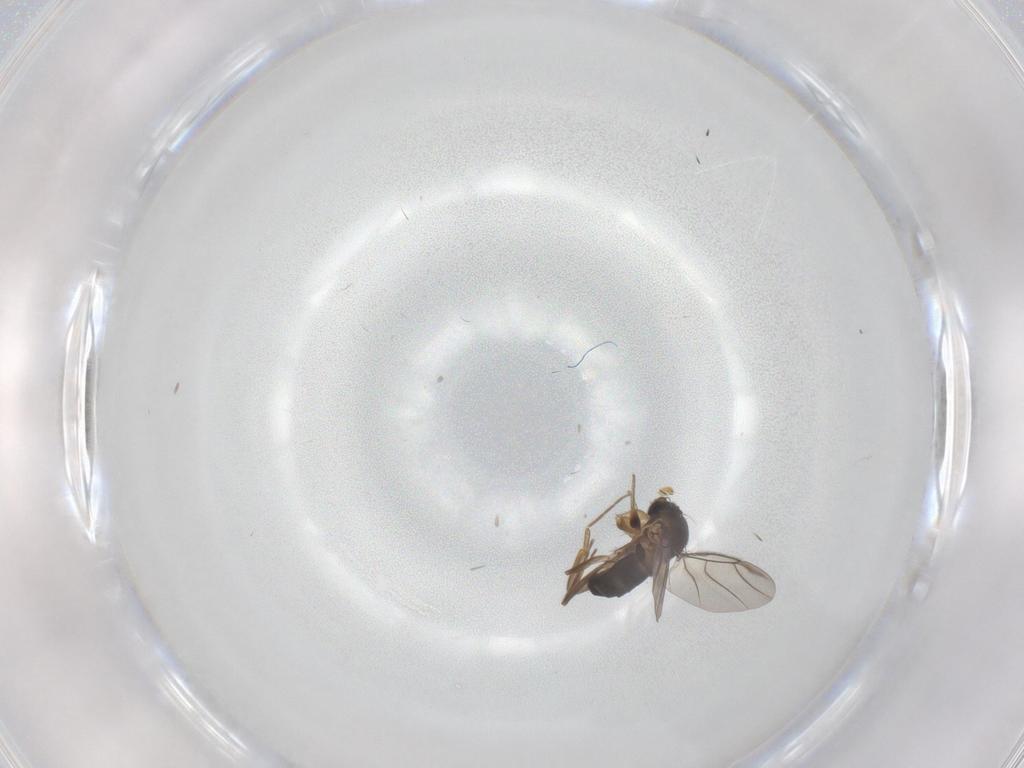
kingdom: Animalia
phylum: Arthropoda
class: Insecta
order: Diptera
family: Phoridae
